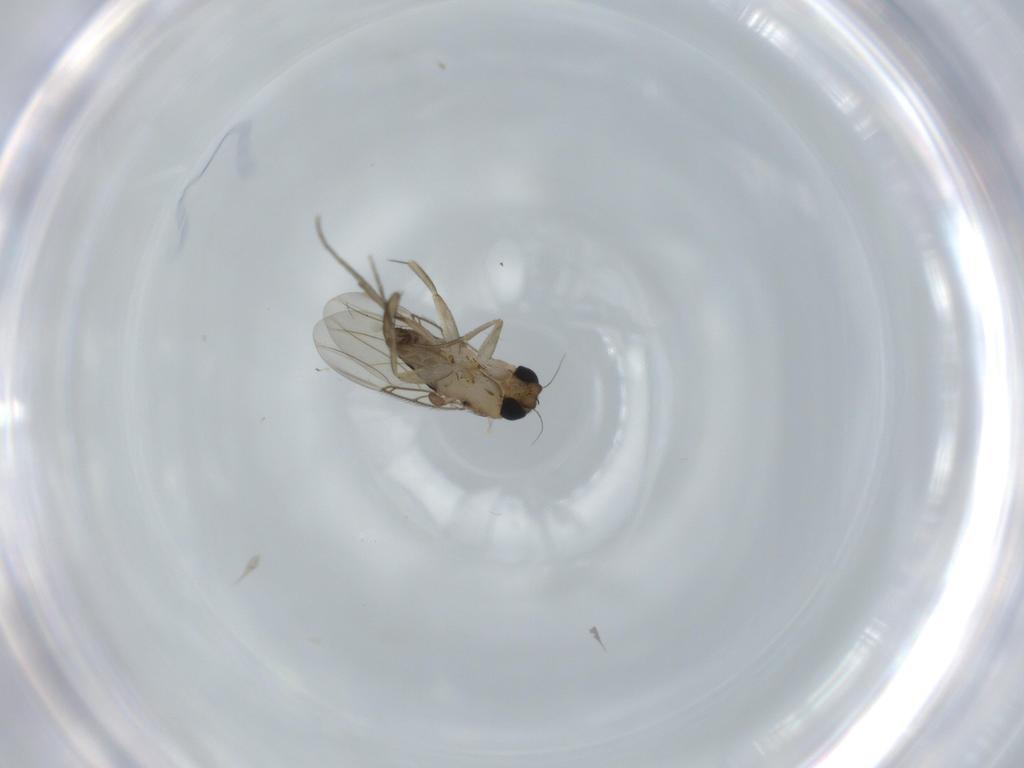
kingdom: Animalia
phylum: Arthropoda
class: Insecta
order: Diptera
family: Phoridae
